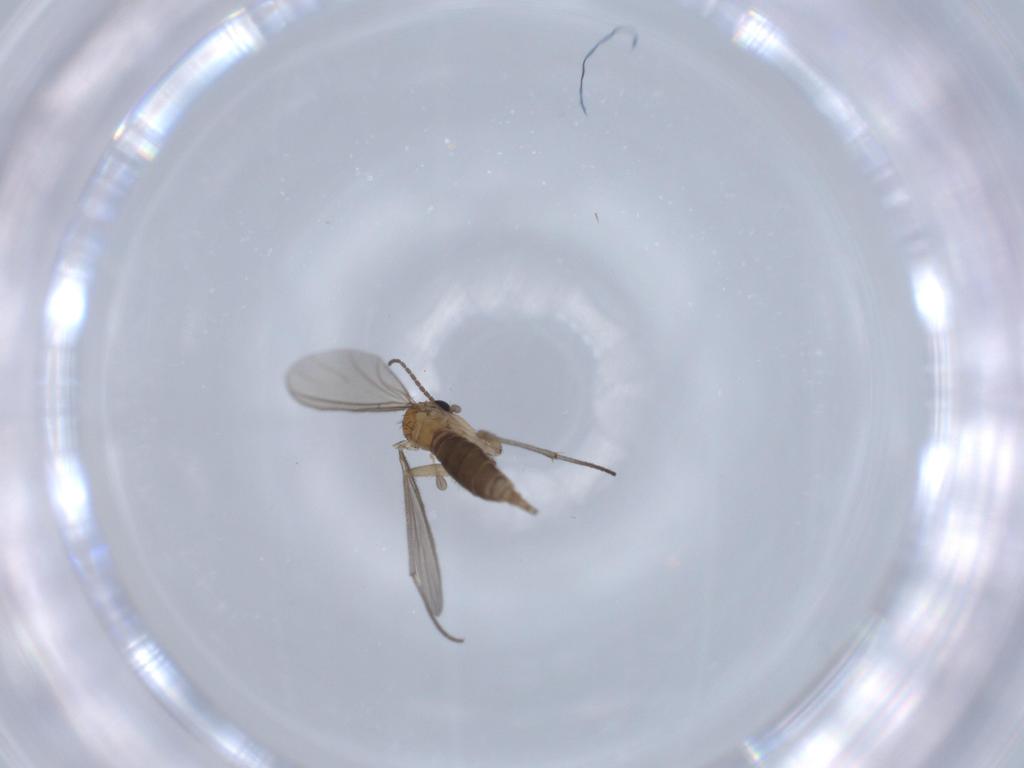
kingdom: Animalia
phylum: Arthropoda
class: Insecta
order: Diptera
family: Sciaridae
